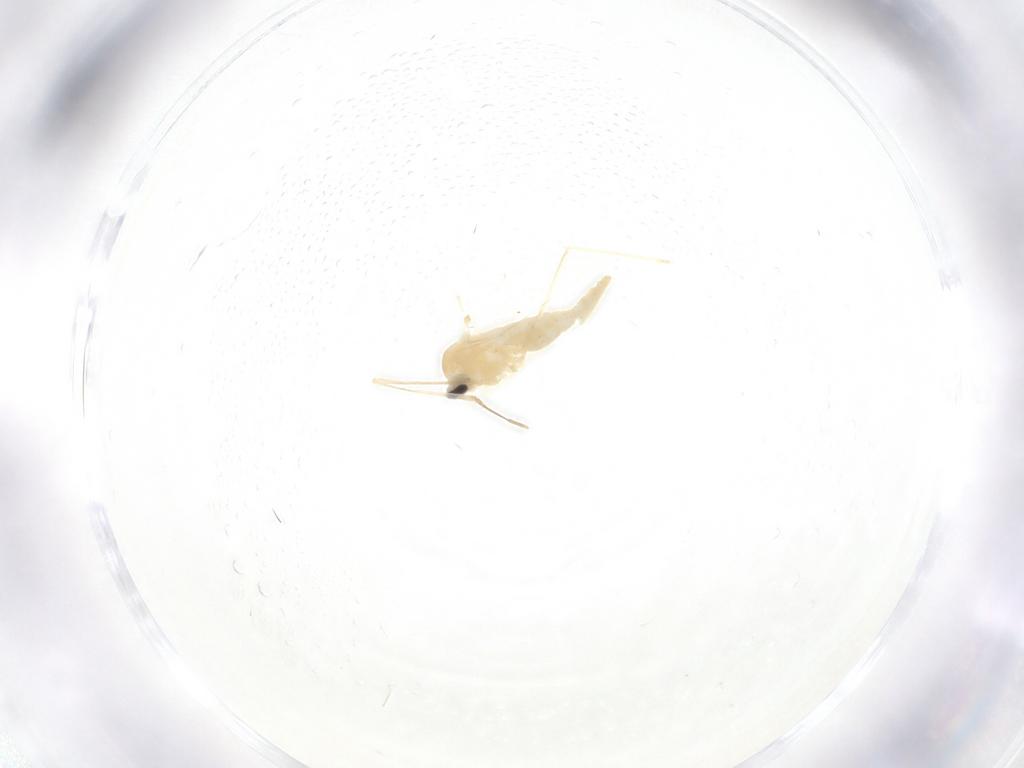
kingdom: Animalia
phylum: Arthropoda
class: Insecta
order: Diptera
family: Cecidomyiidae
